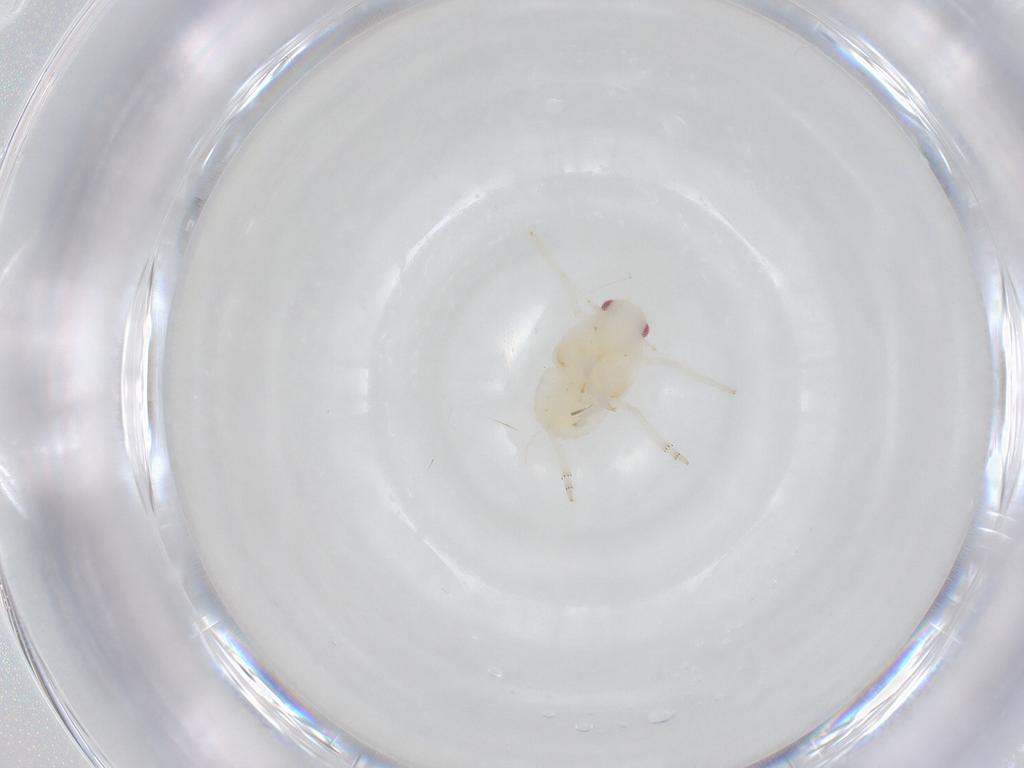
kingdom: Animalia
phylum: Arthropoda
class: Insecta
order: Hemiptera
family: Flatidae
